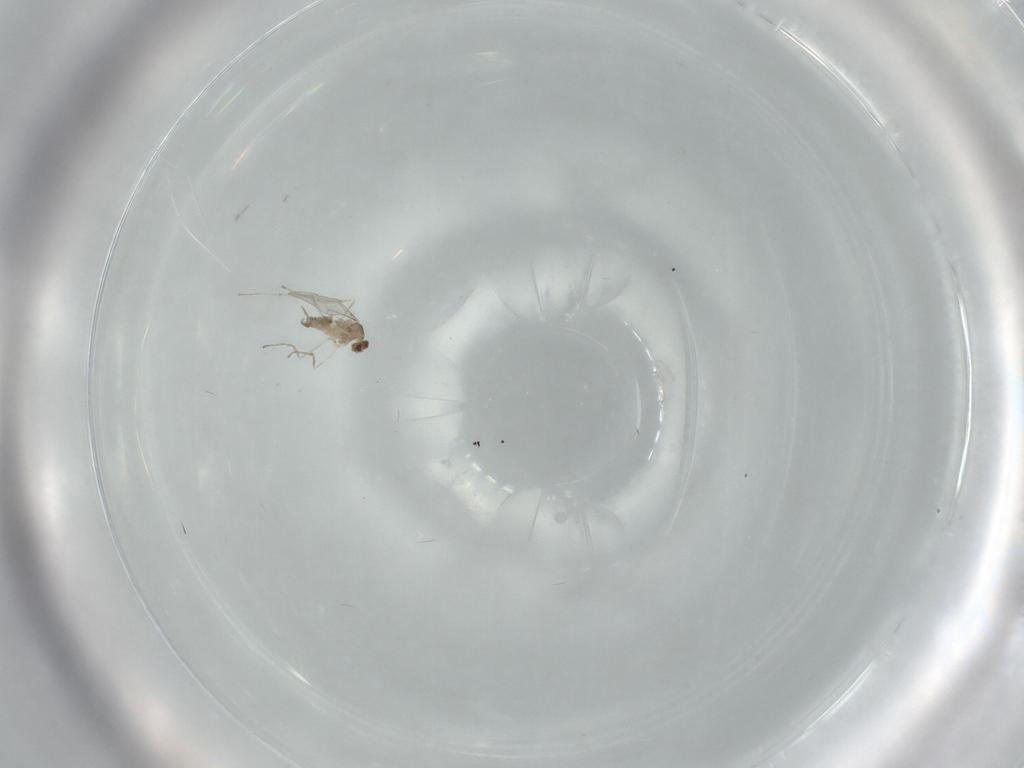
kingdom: Animalia
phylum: Arthropoda
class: Insecta
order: Diptera
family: Cecidomyiidae
